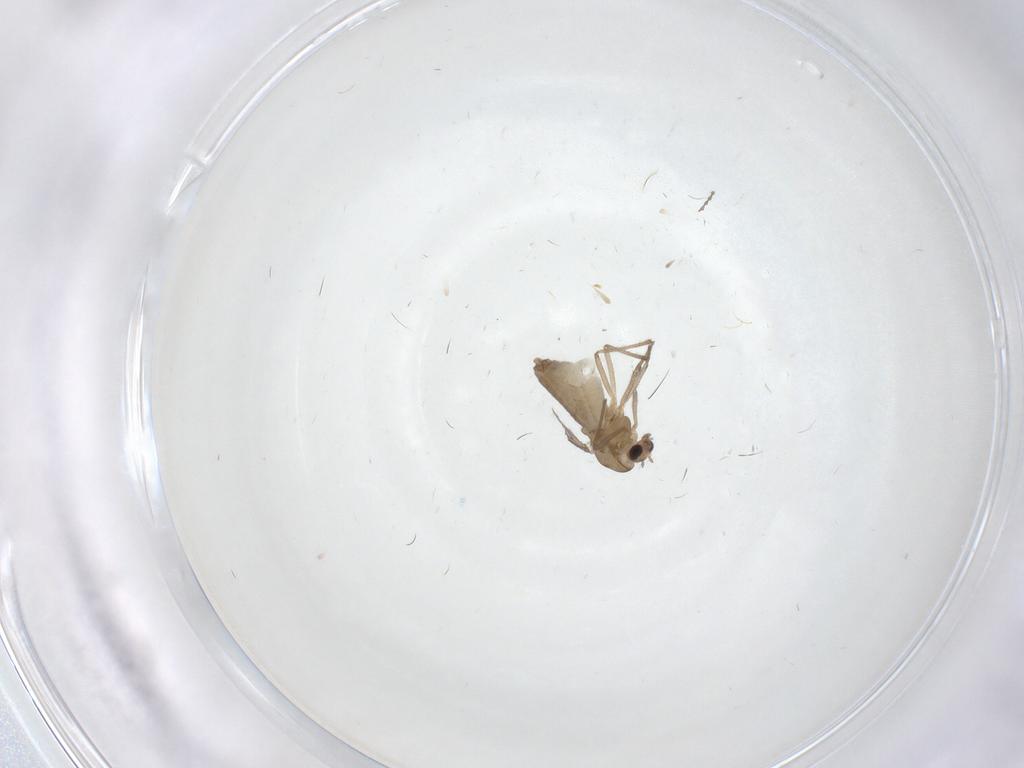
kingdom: Animalia
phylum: Arthropoda
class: Insecta
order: Diptera
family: Chironomidae
